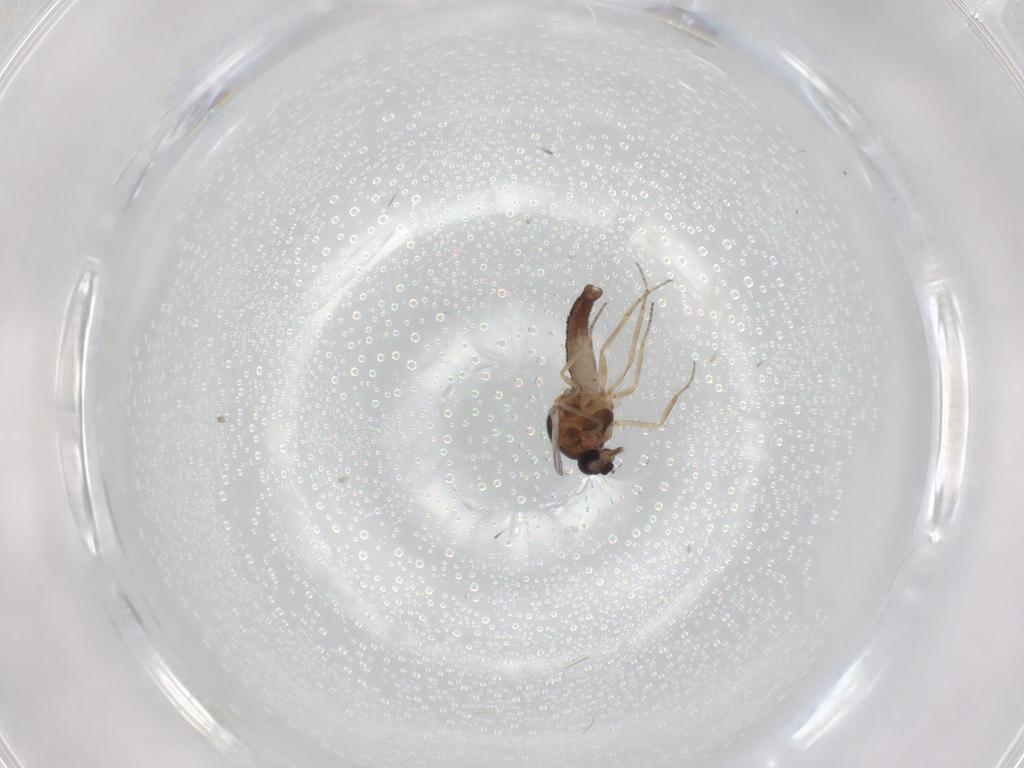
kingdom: Animalia
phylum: Arthropoda
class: Insecta
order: Diptera
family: Ceratopogonidae
